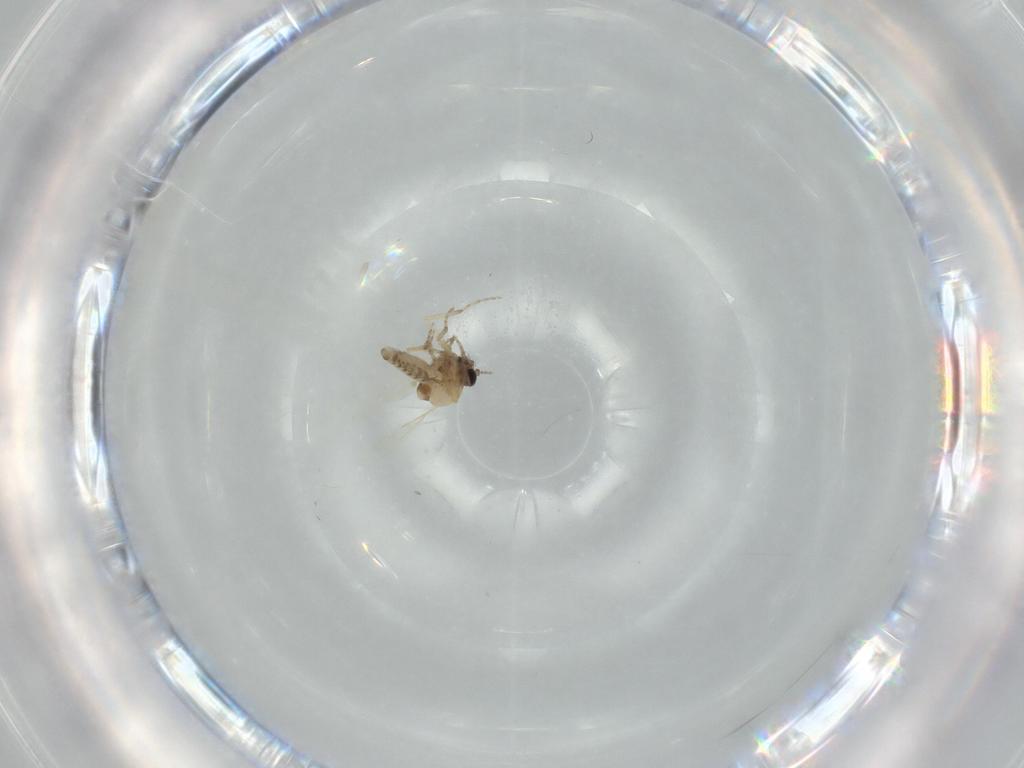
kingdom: Animalia
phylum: Arthropoda
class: Insecta
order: Diptera
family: Ceratopogonidae
